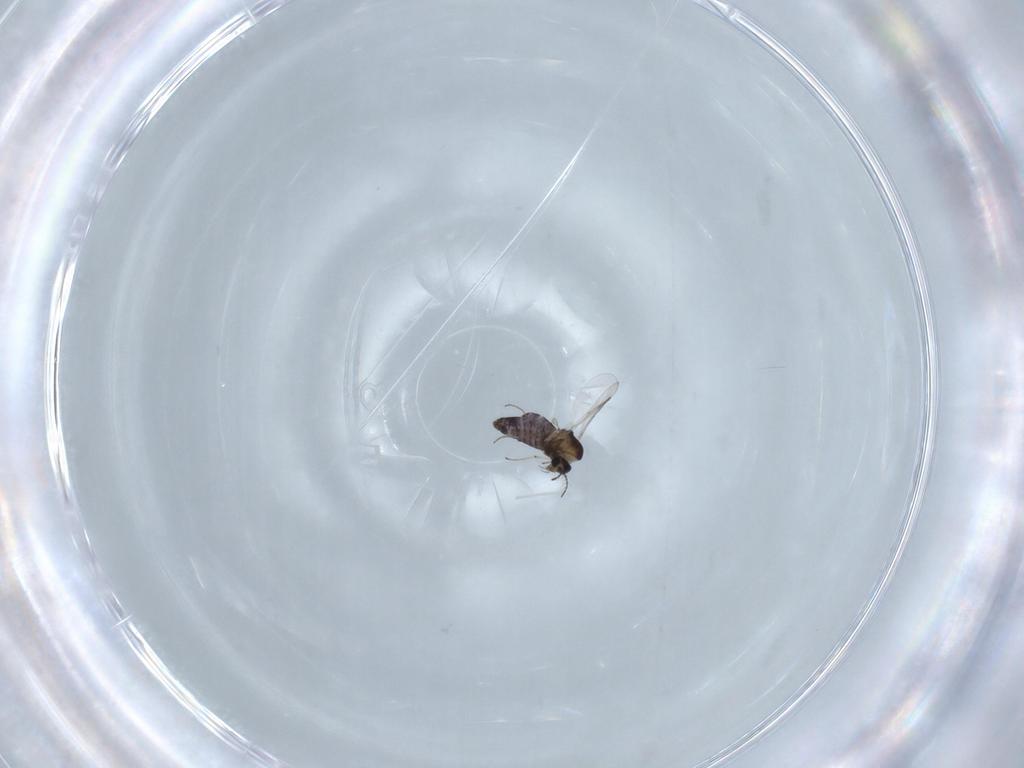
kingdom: Animalia
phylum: Arthropoda
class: Insecta
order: Diptera
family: Chironomidae
